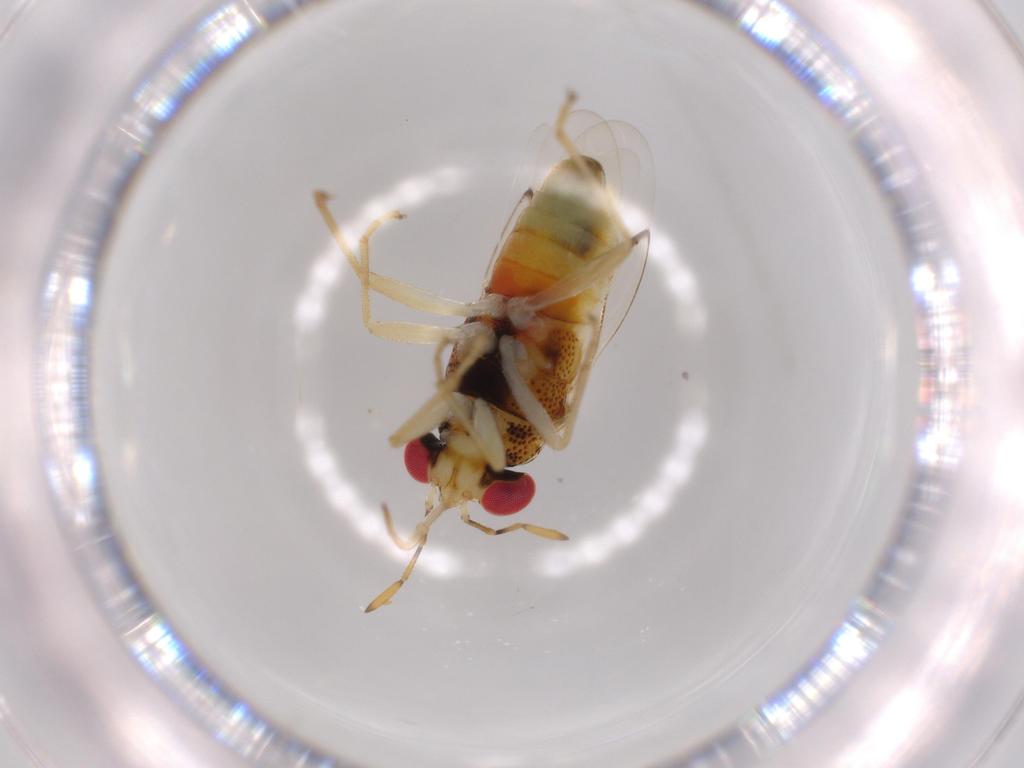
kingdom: Animalia
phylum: Arthropoda
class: Insecta
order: Hemiptera
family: Geocoridae
